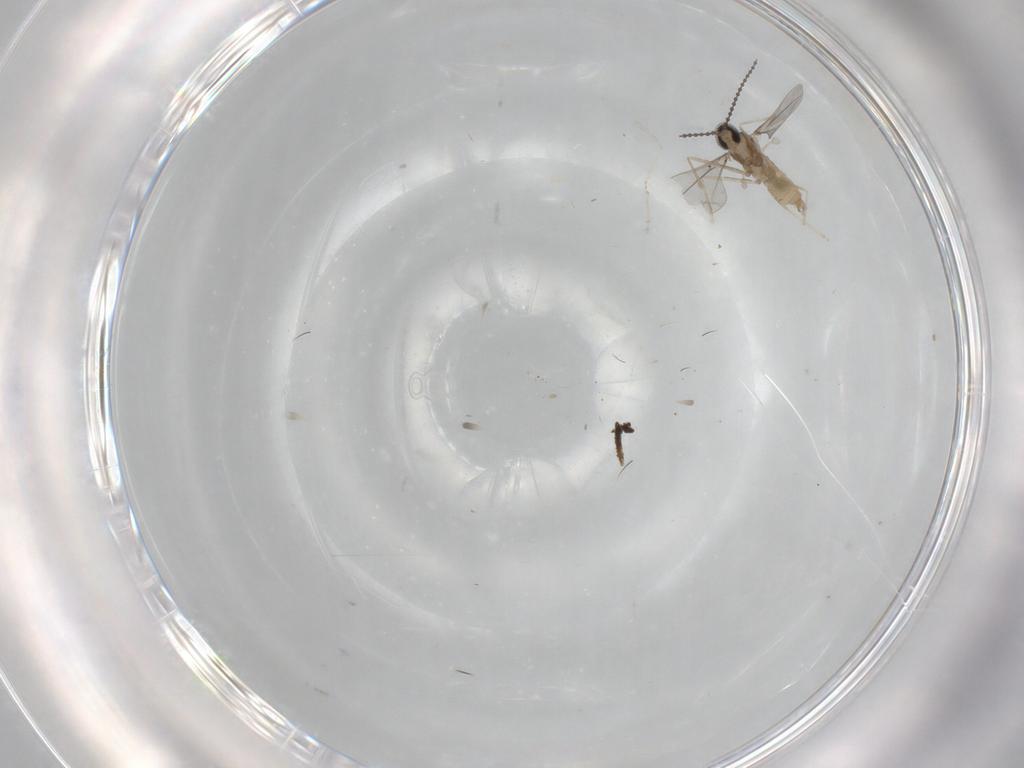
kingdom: Animalia
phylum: Arthropoda
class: Insecta
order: Diptera
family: Cecidomyiidae
